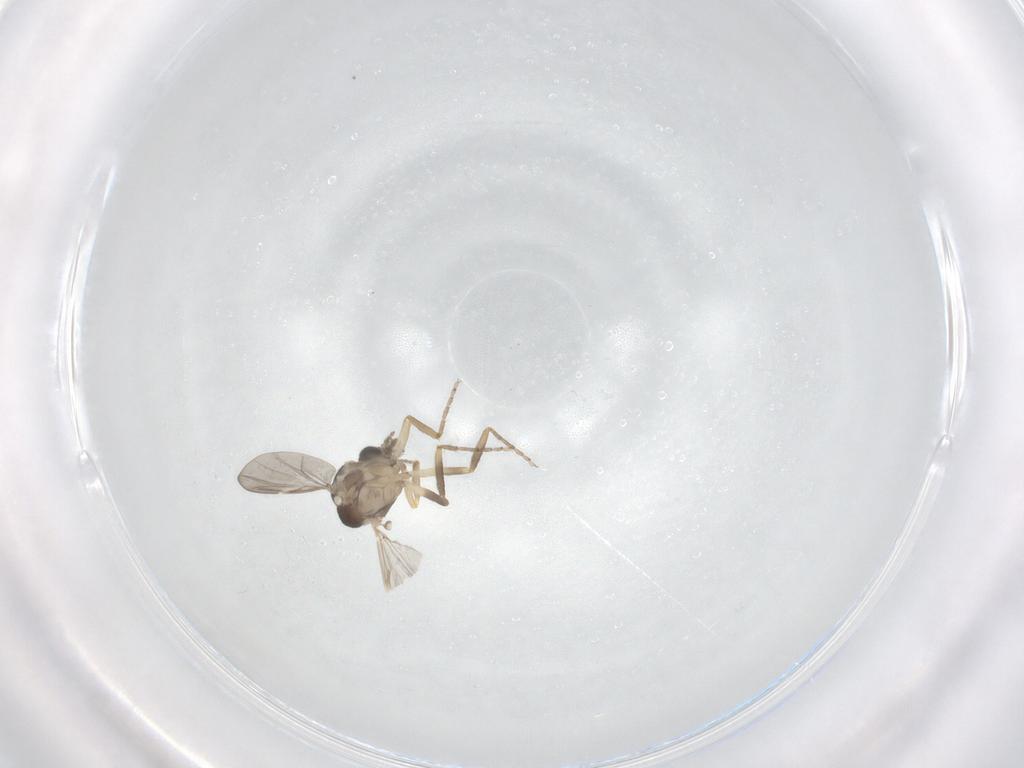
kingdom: Animalia
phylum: Arthropoda
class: Insecta
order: Diptera
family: Ceratopogonidae
